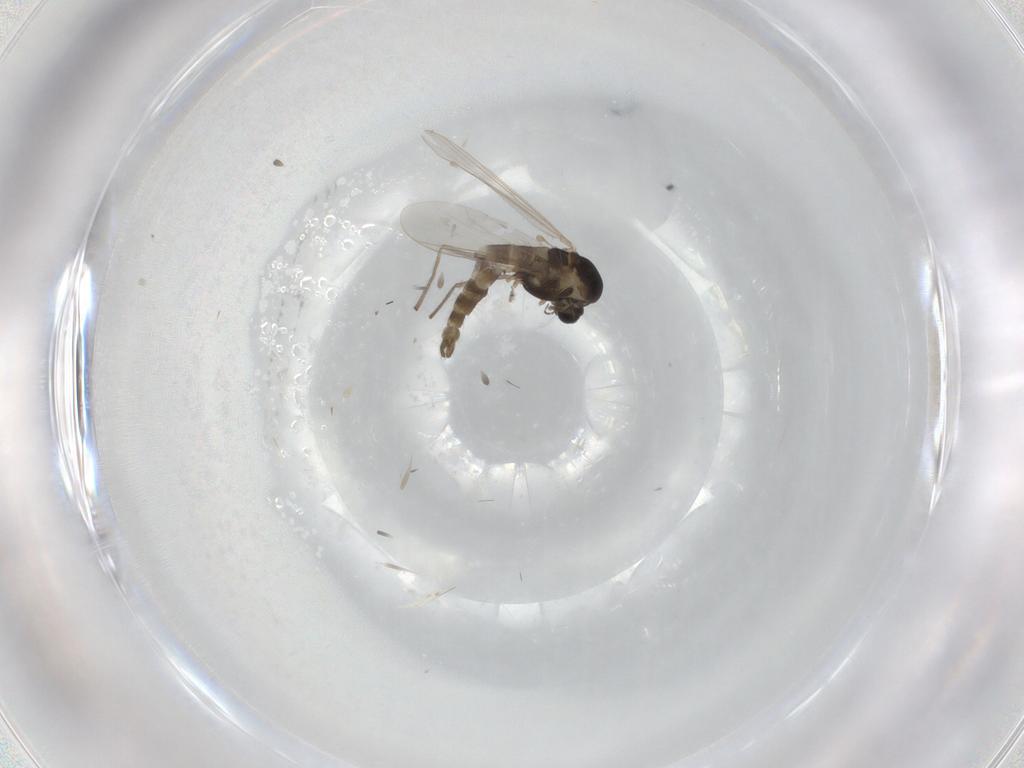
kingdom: Animalia
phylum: Arthropoda
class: Insecta
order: Diptera
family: Chironomidae
